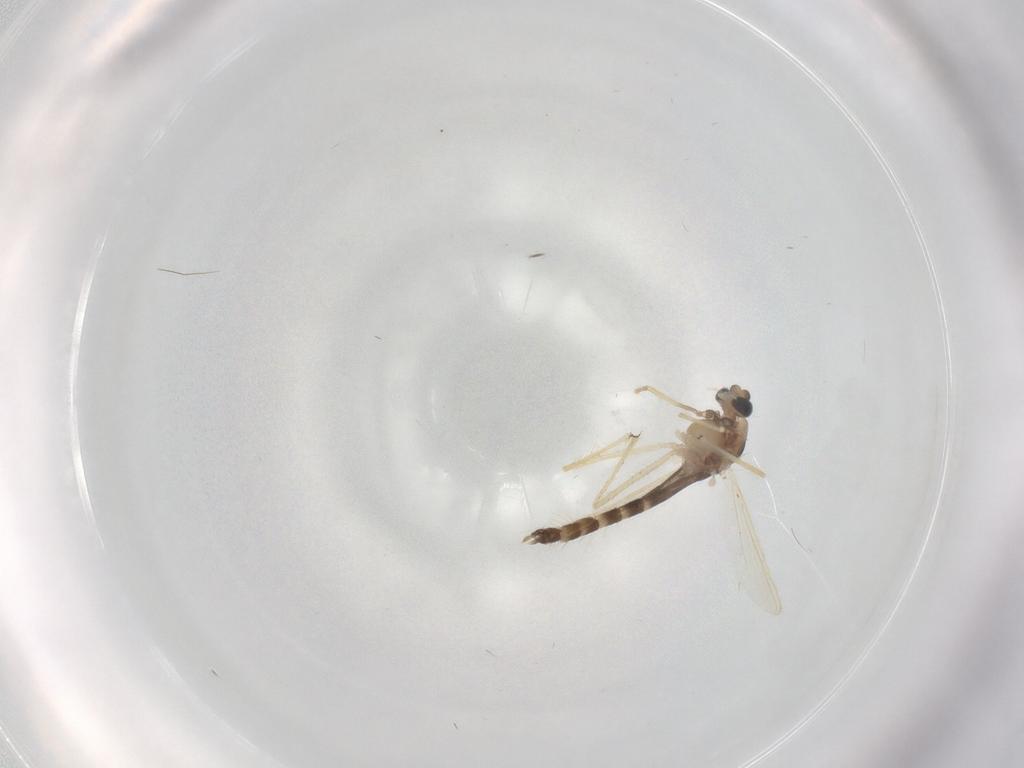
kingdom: Animalia
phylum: Arthropoda
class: Insecta
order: Diptera
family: Chironomidae
